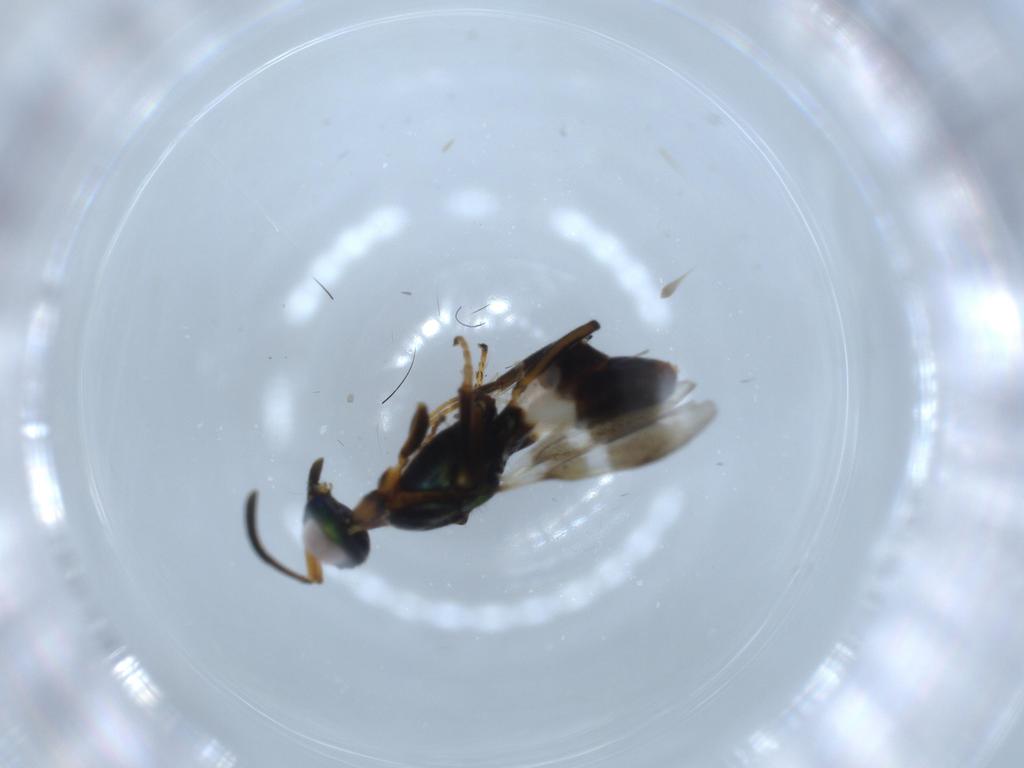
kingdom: Animalia
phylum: Arthropoda
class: Insecta
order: Hymenoptera
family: Eupelmidae
